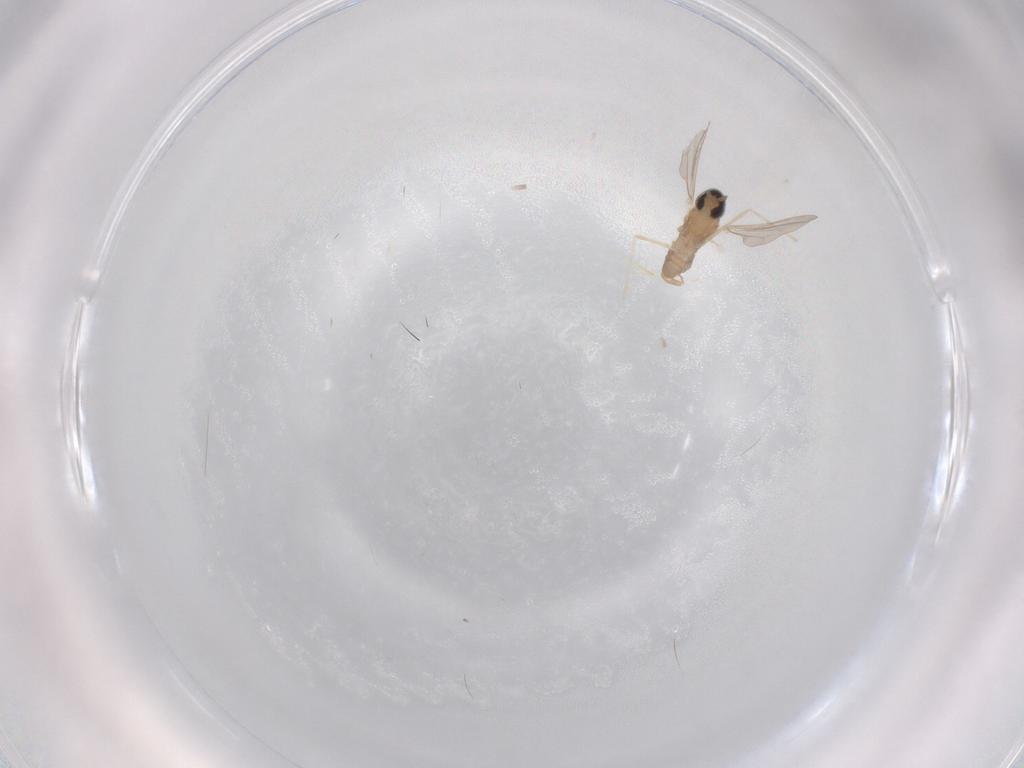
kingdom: Animalia
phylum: Arthropoda
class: Insecta
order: Diptera
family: Cecidomyiidae
